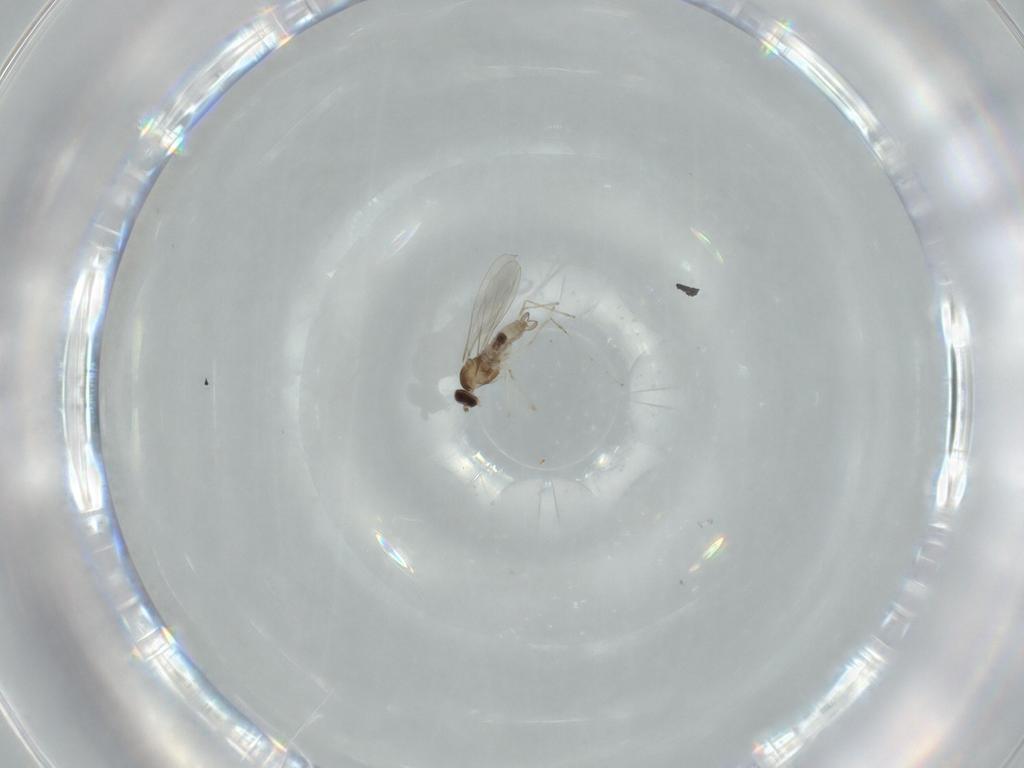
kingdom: Animalia
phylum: Arthropoda
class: Insecta
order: Diptera
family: Cecidomyiidae
